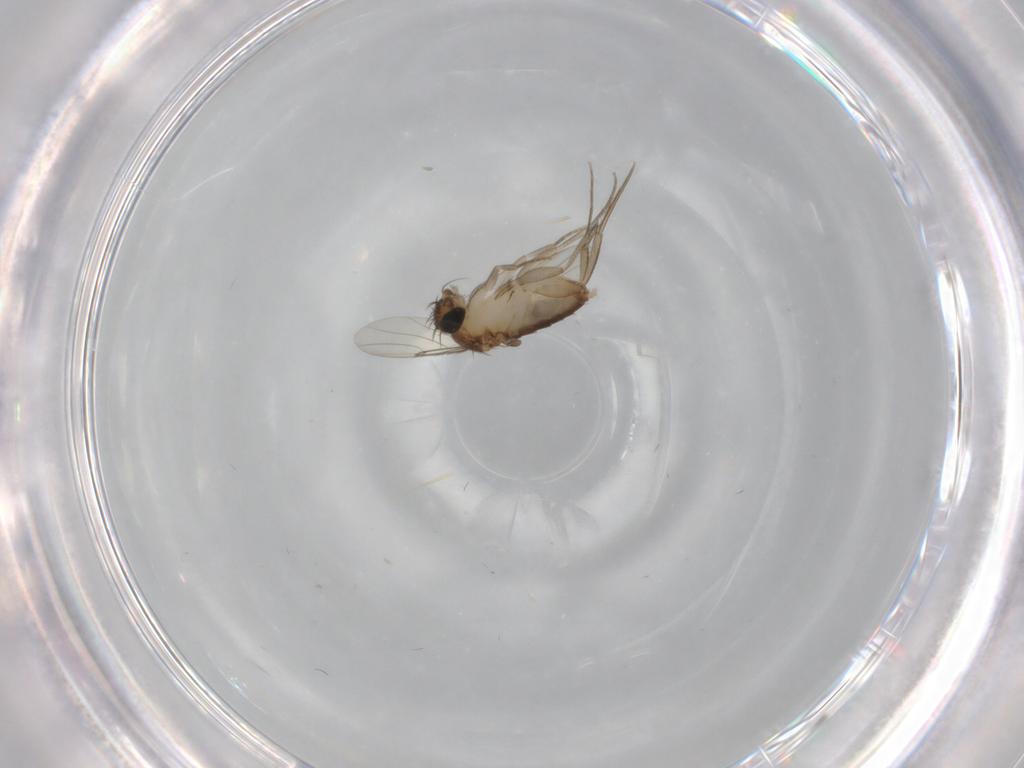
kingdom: Animalia
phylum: Arthropoda
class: Insecta
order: Diptera
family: Phoridae
